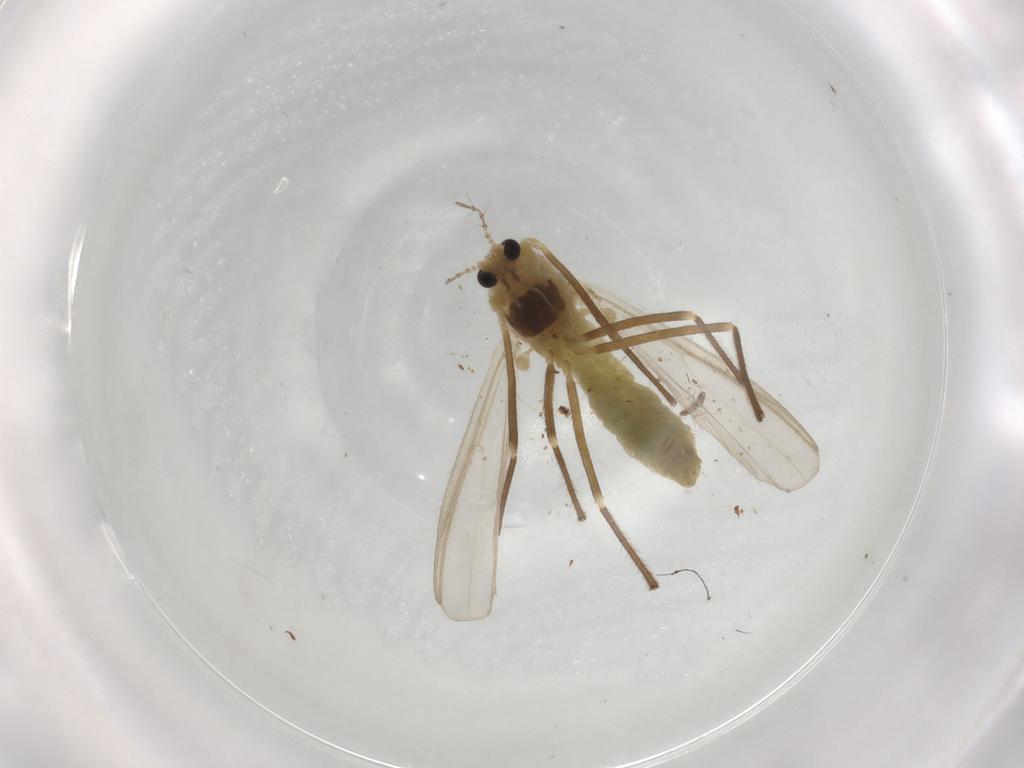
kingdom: Animalia
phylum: Arthropoda
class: Insecta
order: Diptera
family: Chironomidae
